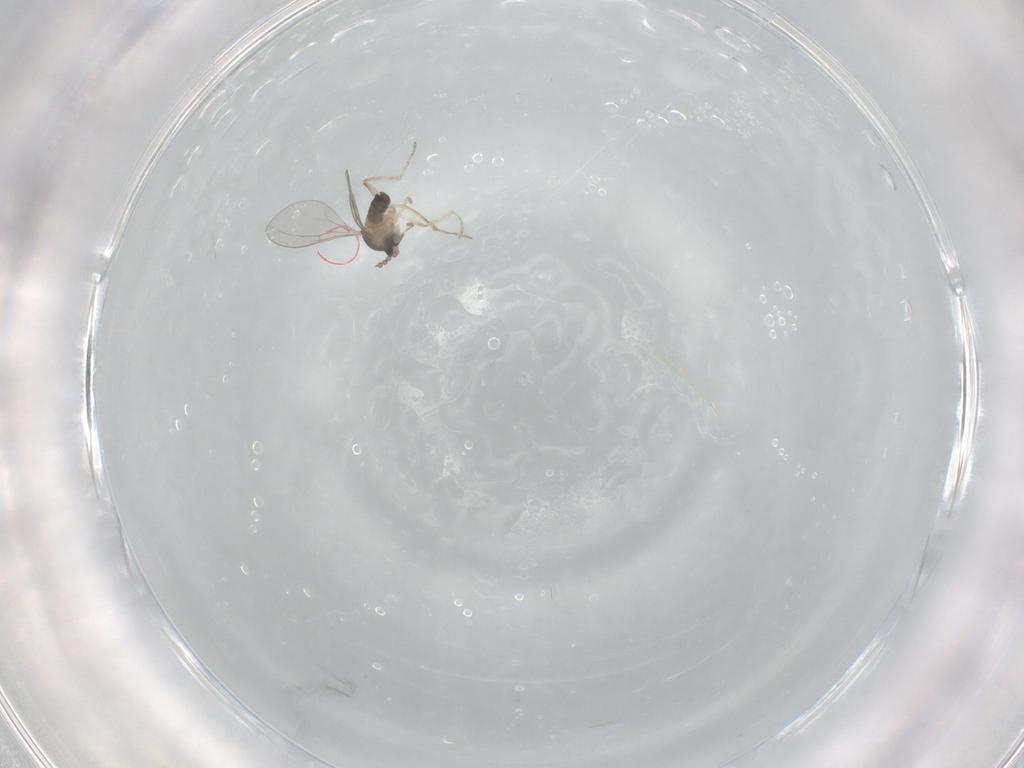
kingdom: Animalia
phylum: Arthropoda
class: Insecta
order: Diptera
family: Cecidomyiidae
